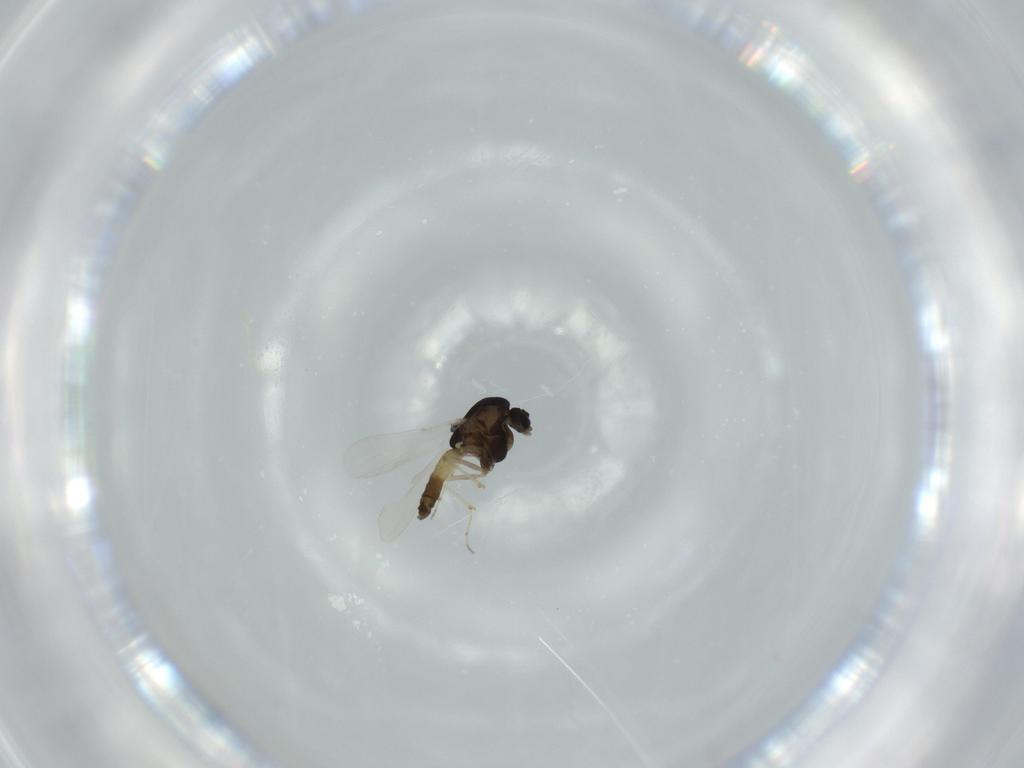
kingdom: Animalia
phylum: Arthropoda
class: Insecta
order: Diptera
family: Chironomidae
